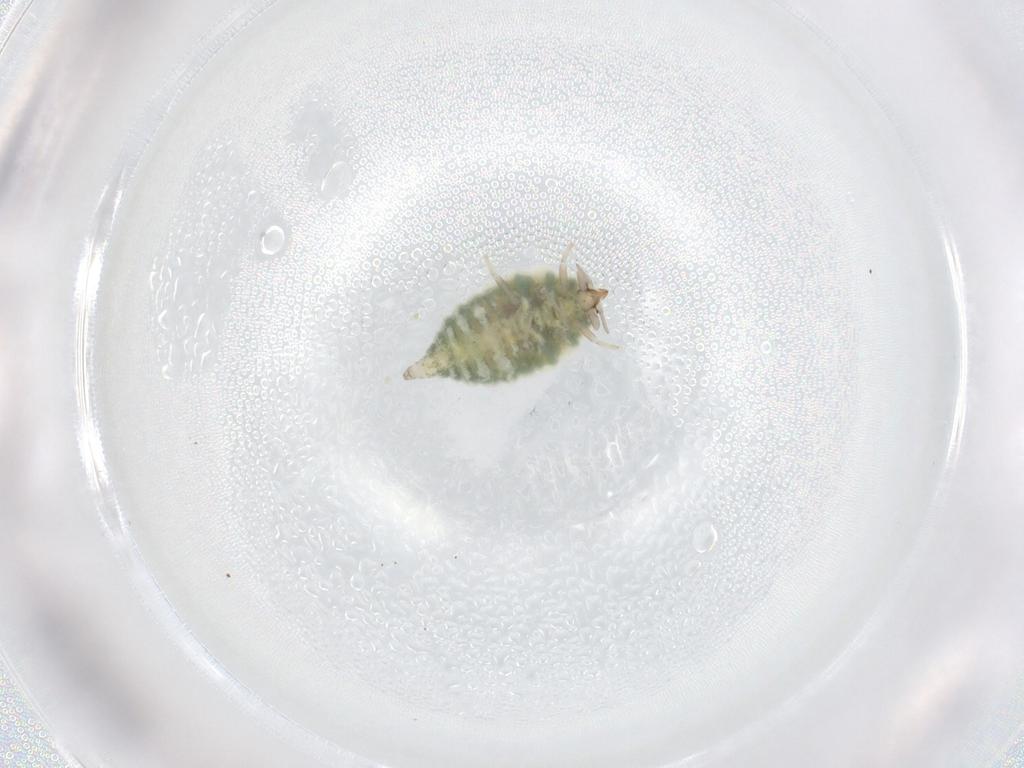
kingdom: Animalia
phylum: Arthropoda
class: Insecta
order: Neuroptera
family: Coniopterygidae
